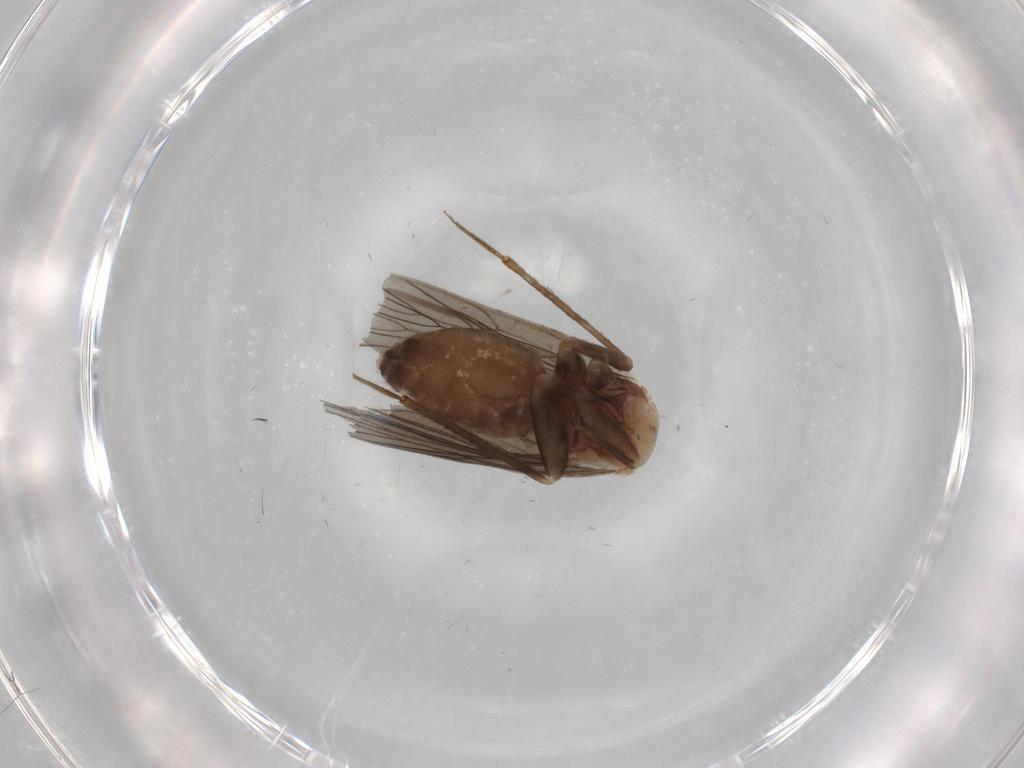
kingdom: Animalia
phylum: Arthropoda
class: Insecta
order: Psocodea
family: Lepidopsocidae
